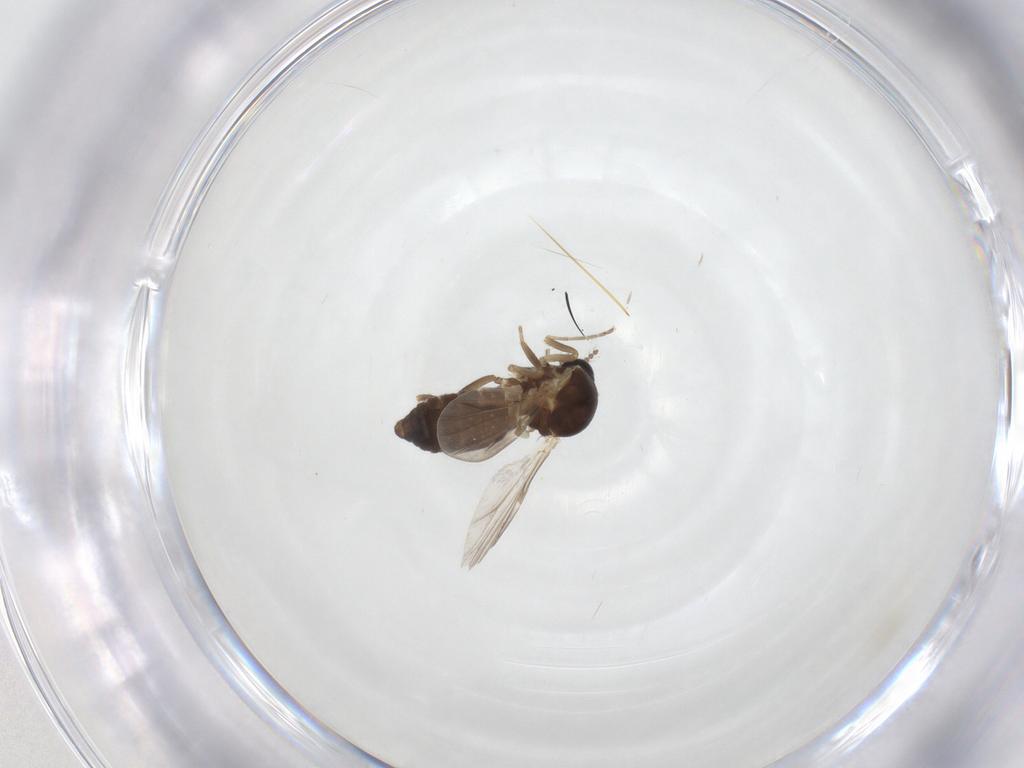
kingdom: Animalia
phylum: Arthropoda
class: Insecta
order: Diptera
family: Ceratopogonidae
